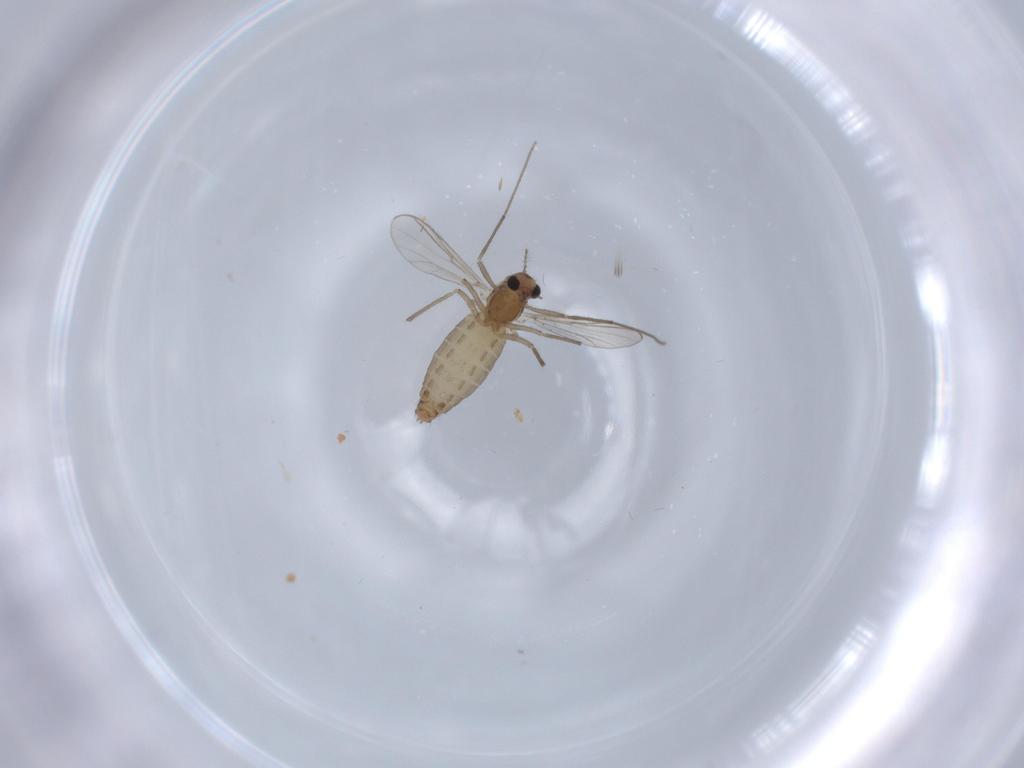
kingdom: Animalia
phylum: Arthropoda
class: Insecta
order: Diptera
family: Chironomidae
